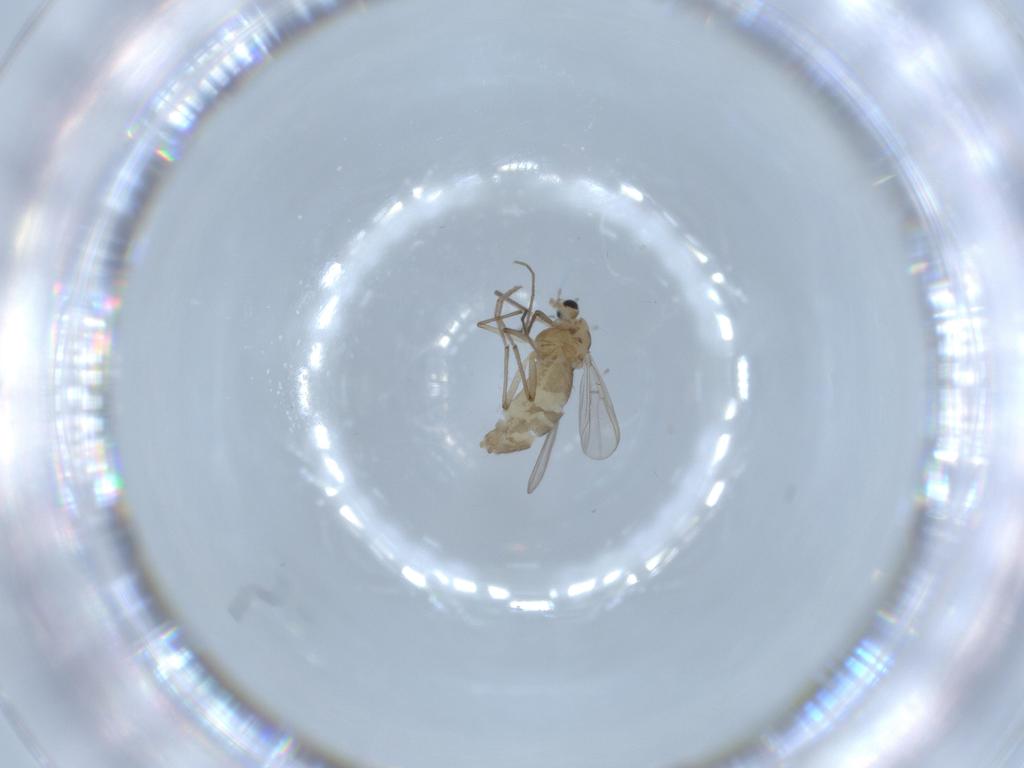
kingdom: Animalia
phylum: Arthropoda
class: Insecta
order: Diptera
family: Chironomidae
